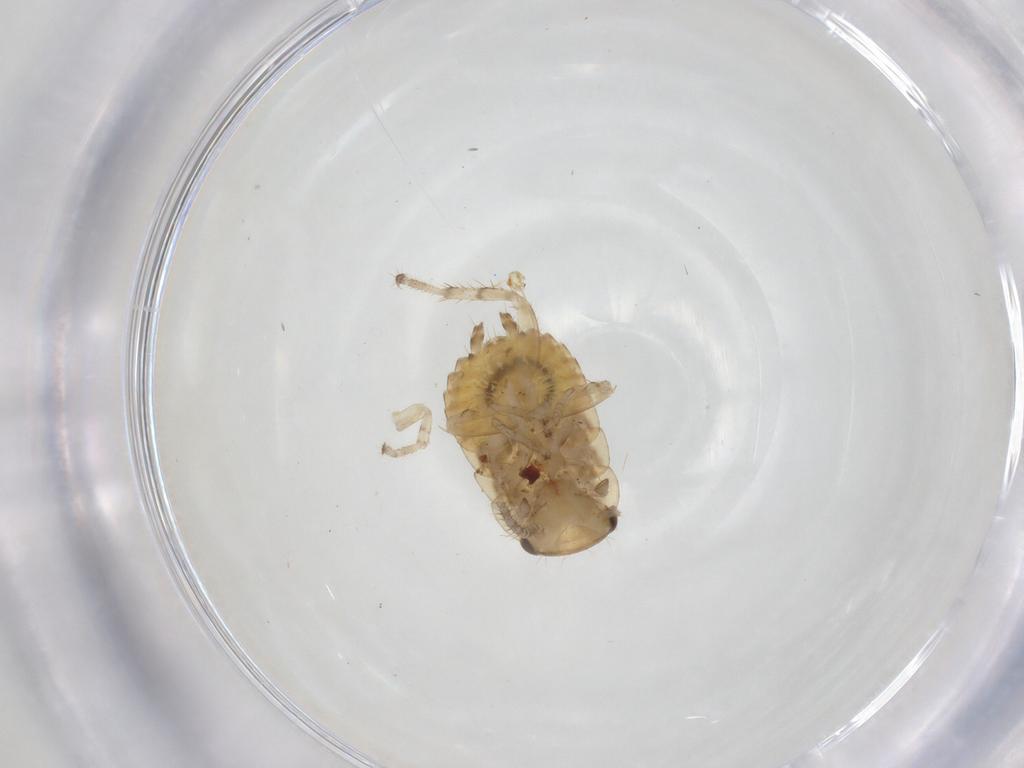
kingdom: Animalia
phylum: Arthropoda
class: Insecta
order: Blattodea
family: Ectobiidae
